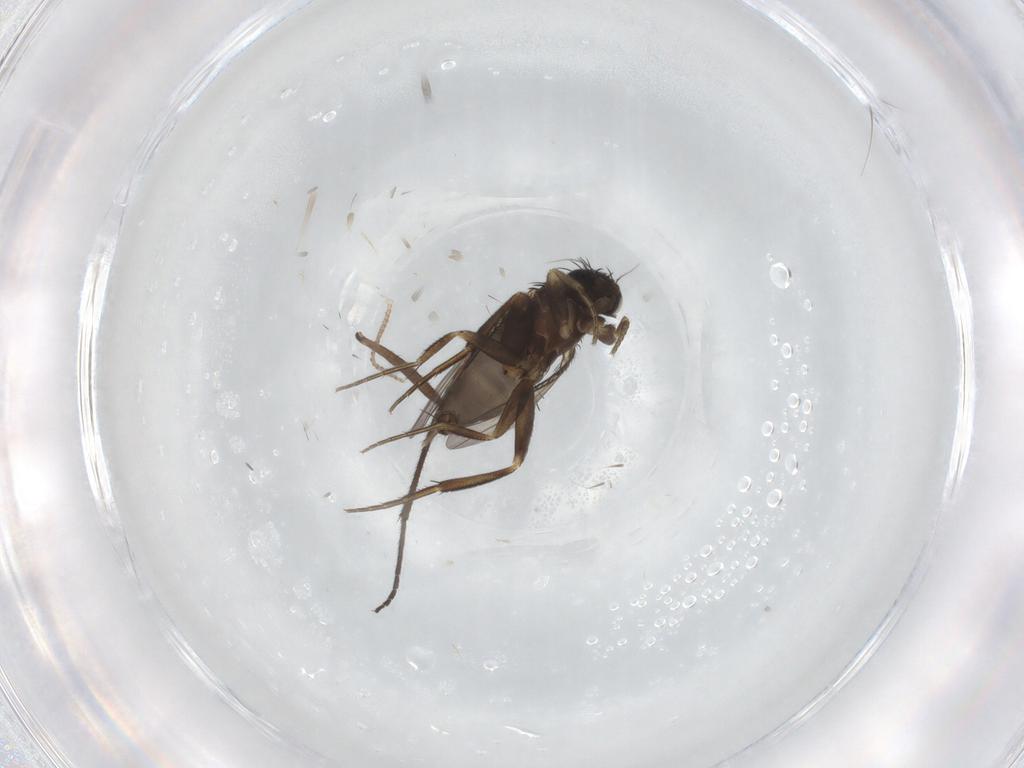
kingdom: Animalia
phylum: Arthropoda
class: Insecta
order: Diptera
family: Phoridae
